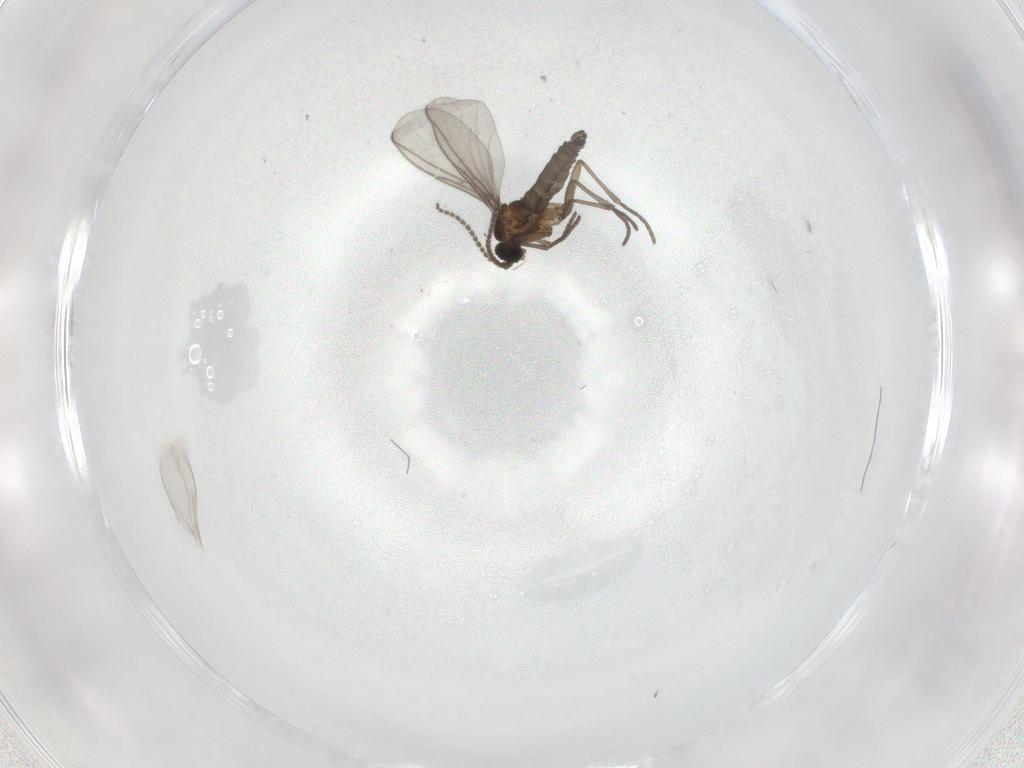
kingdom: Animalia
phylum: Arthropoda
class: Insecta
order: Diptera
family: Cecidomyiidae
